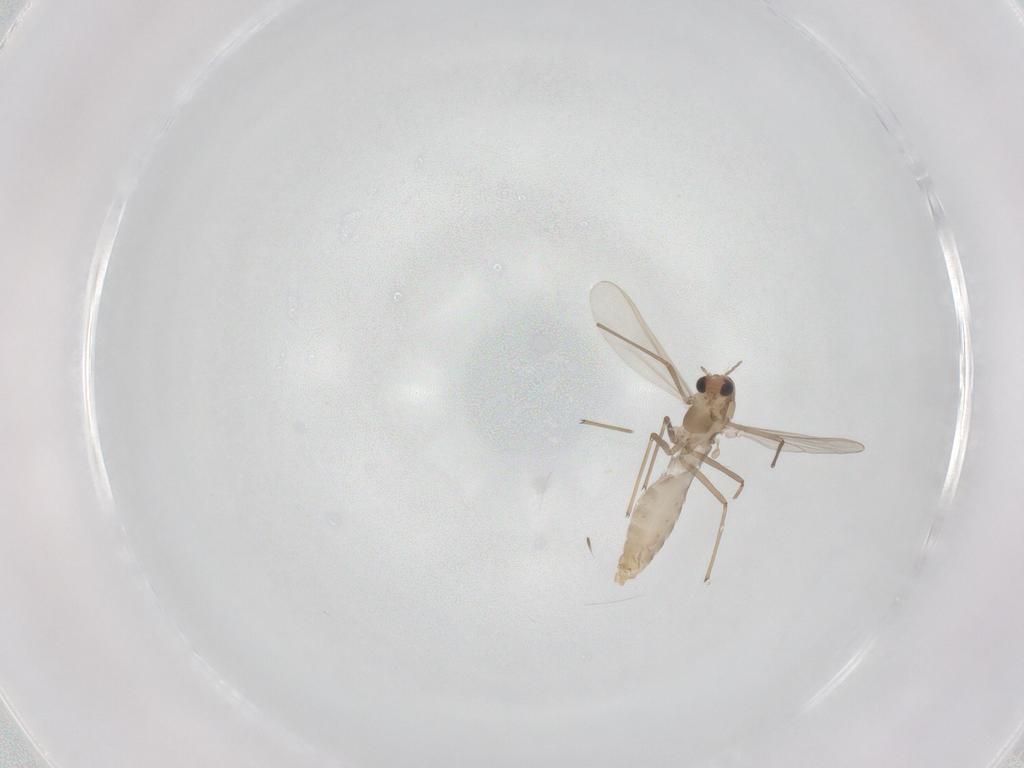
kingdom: Animalia
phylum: Arthropoda
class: Insecta
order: Diptera
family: Chironomidae
